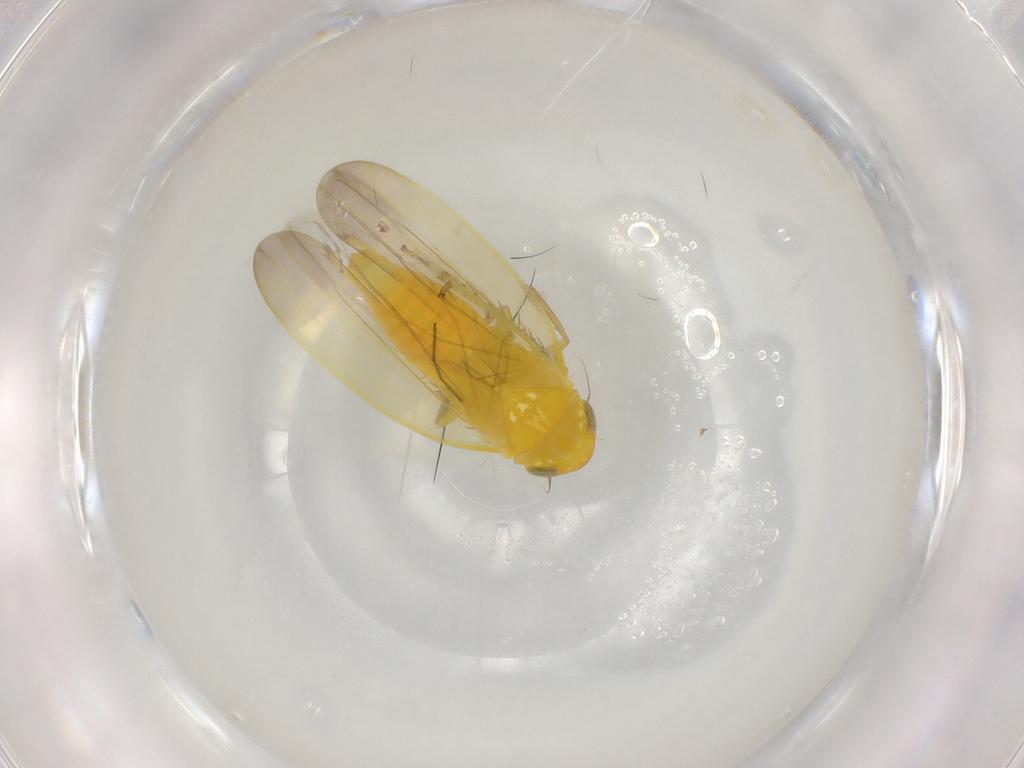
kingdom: Animalia
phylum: Arthropoda
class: Insecta
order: Hemiptera
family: Cicadellidae
